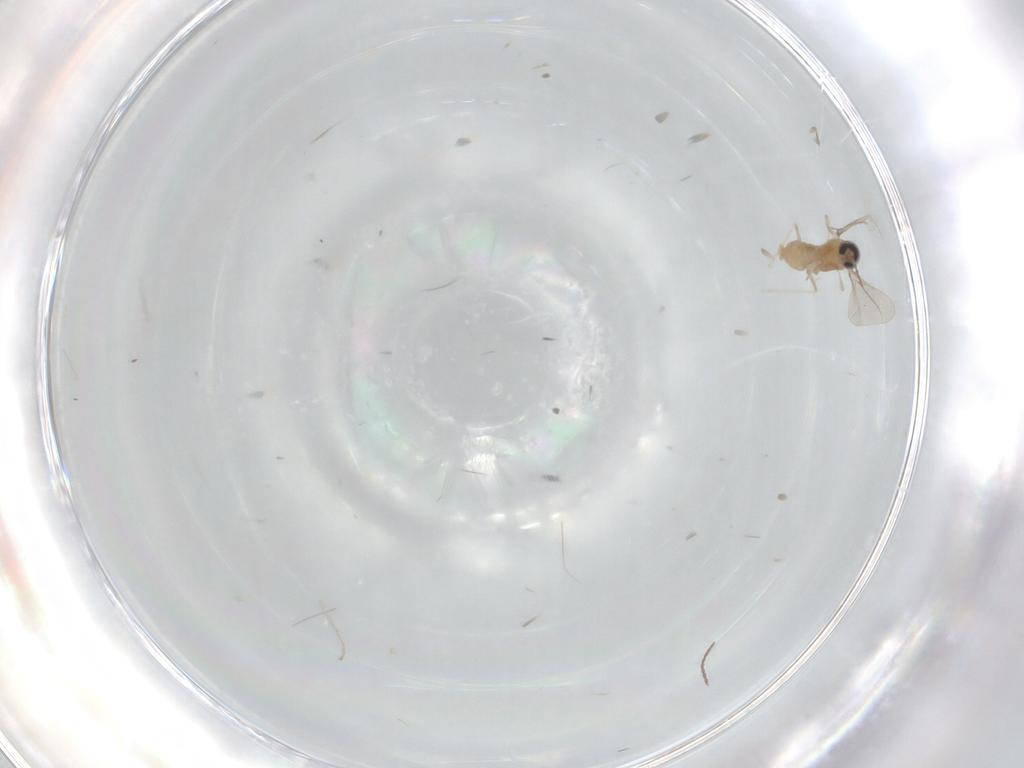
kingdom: Animalia
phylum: Arthropoda
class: Insecta
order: Diptera
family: Cecidomyiidae
